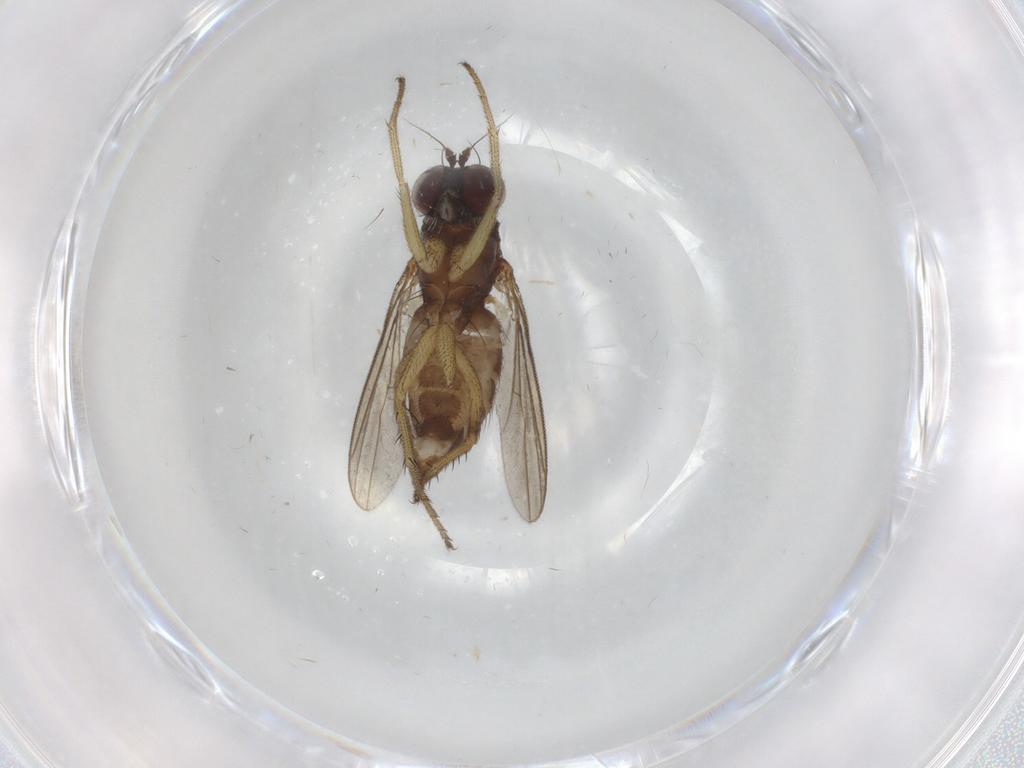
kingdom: Animalia
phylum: Arthropoda
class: Insecta
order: Diptera
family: Dolichopodidae
